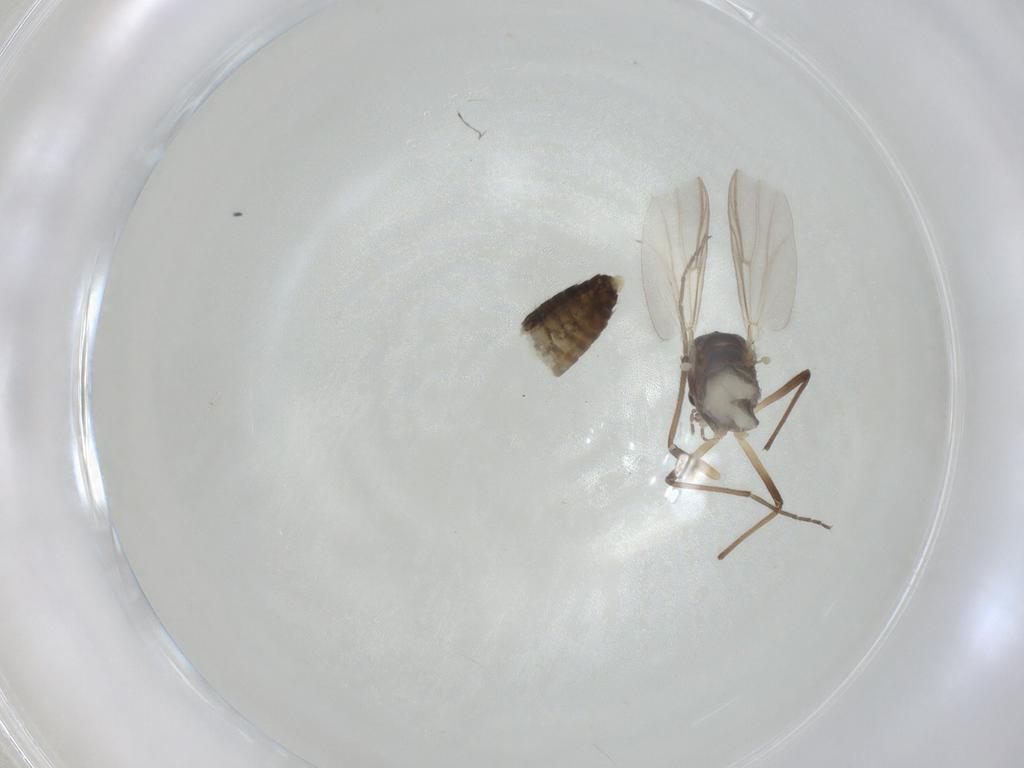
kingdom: Animalia
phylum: Arthropoda
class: Insecta
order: Diptera
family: Chironomidae
